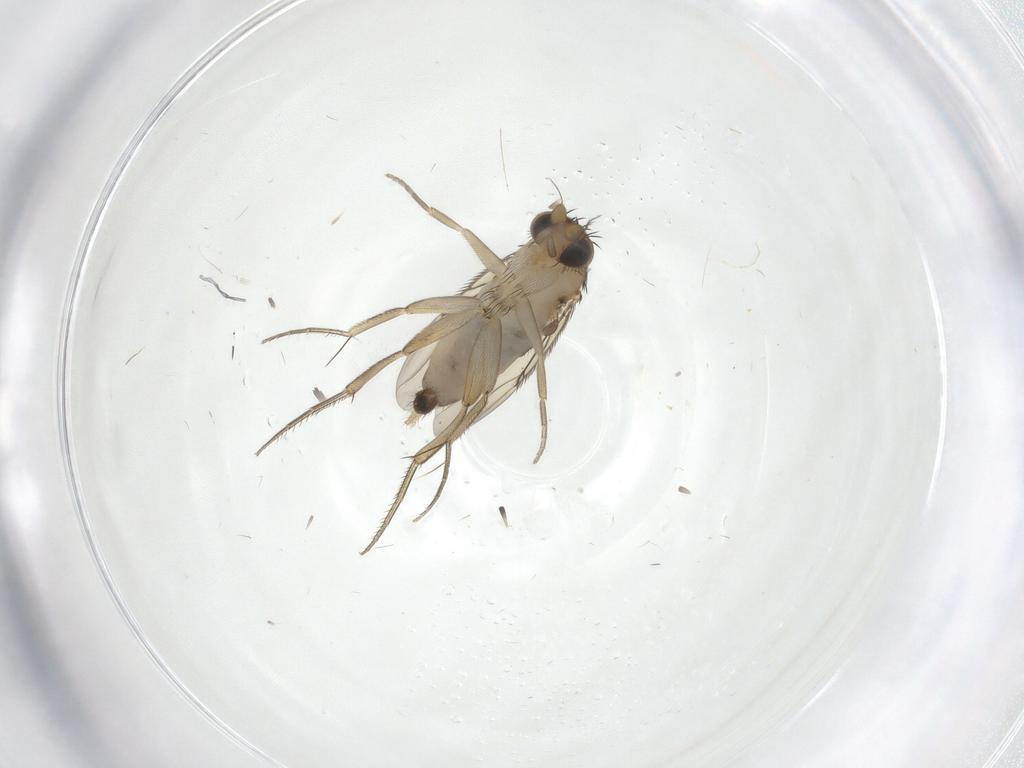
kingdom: Animalia
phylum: Arthropoda
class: Insecta
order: Diptera
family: Phoridae
